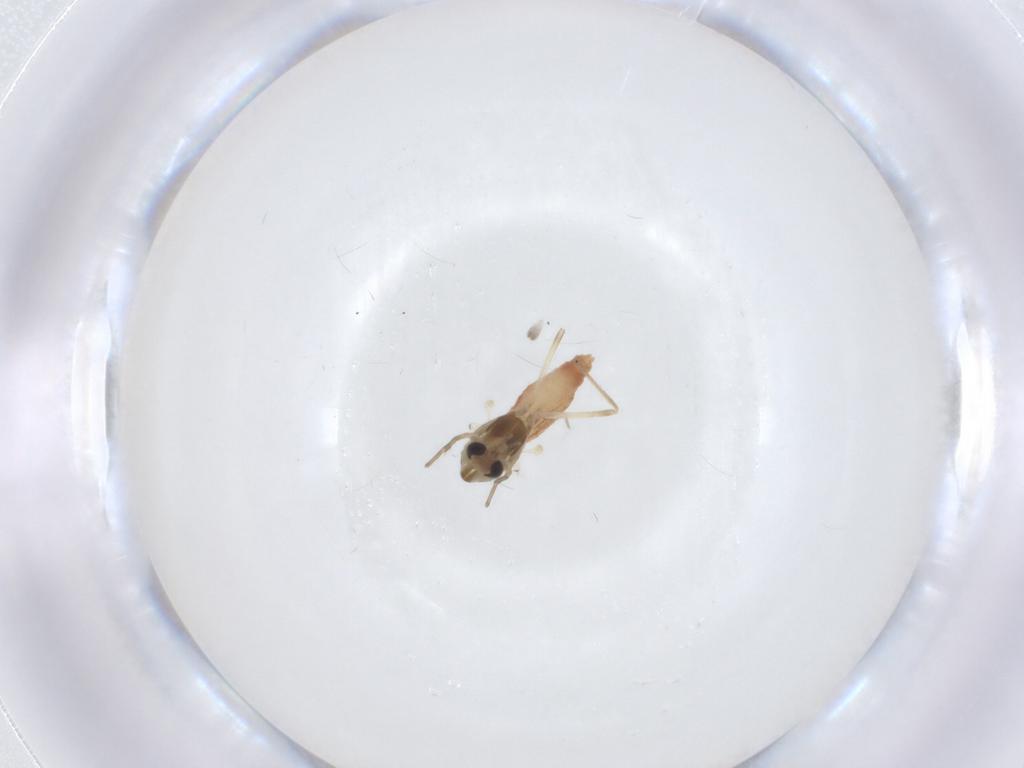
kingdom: Animalia
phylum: Arthropoda
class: Insecta
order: Diptera
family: Chironomidae
